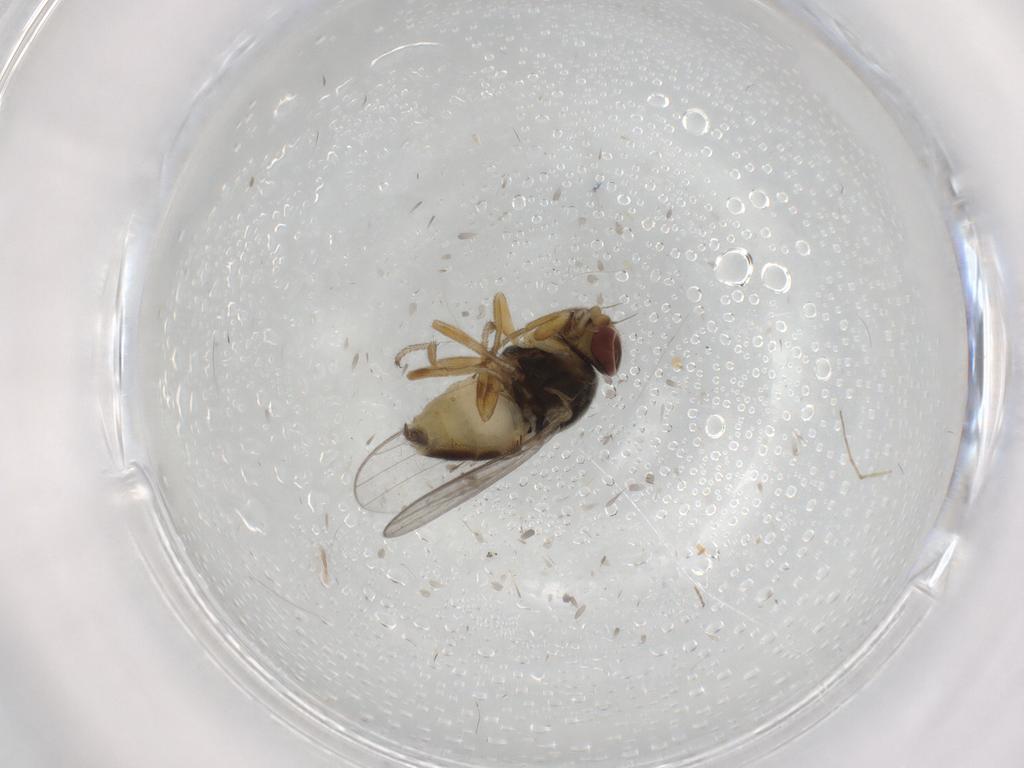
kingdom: Animalia
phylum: Arthropoda
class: Insecta
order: Diptera
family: Chloropidae
